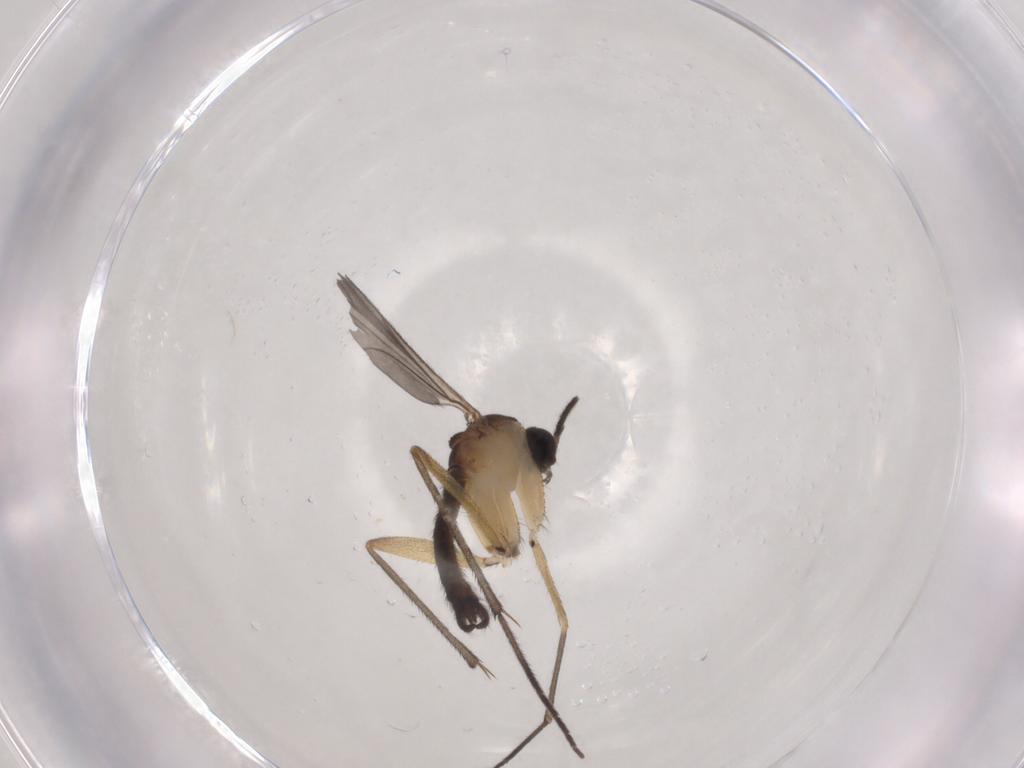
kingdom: Animalia
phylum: Arthropoda
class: Insecta
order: Diptera
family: Sciaridae
